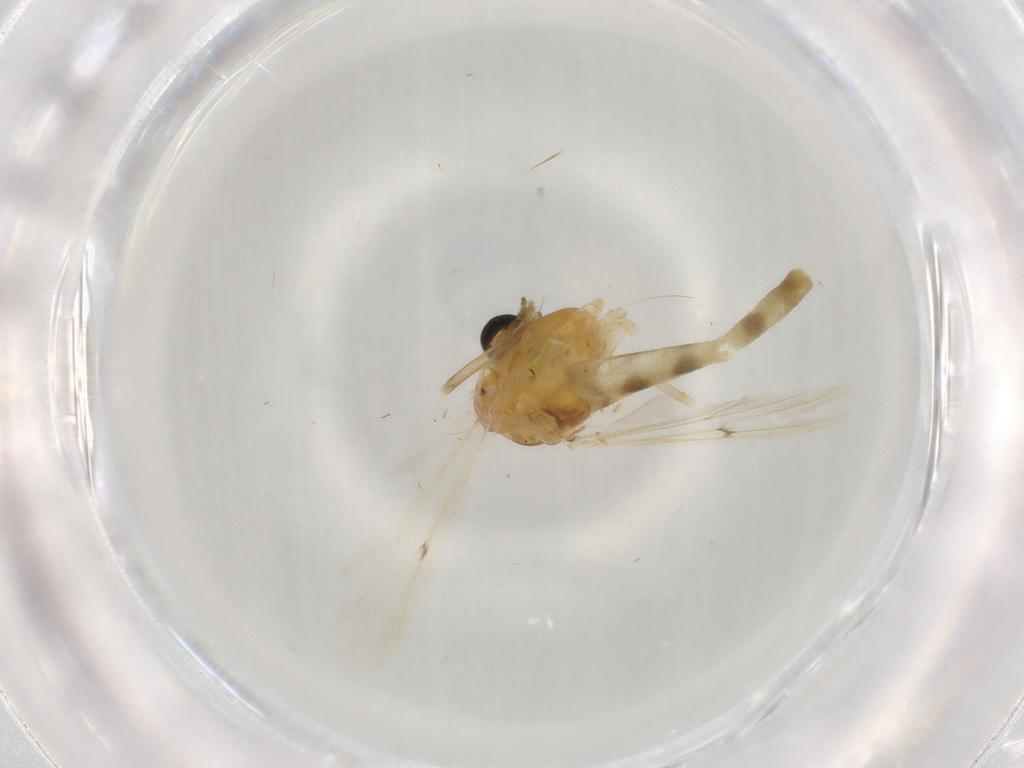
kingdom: Animalia
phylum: Arthropoda
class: Insecta
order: Diptera
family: Chironomidae
